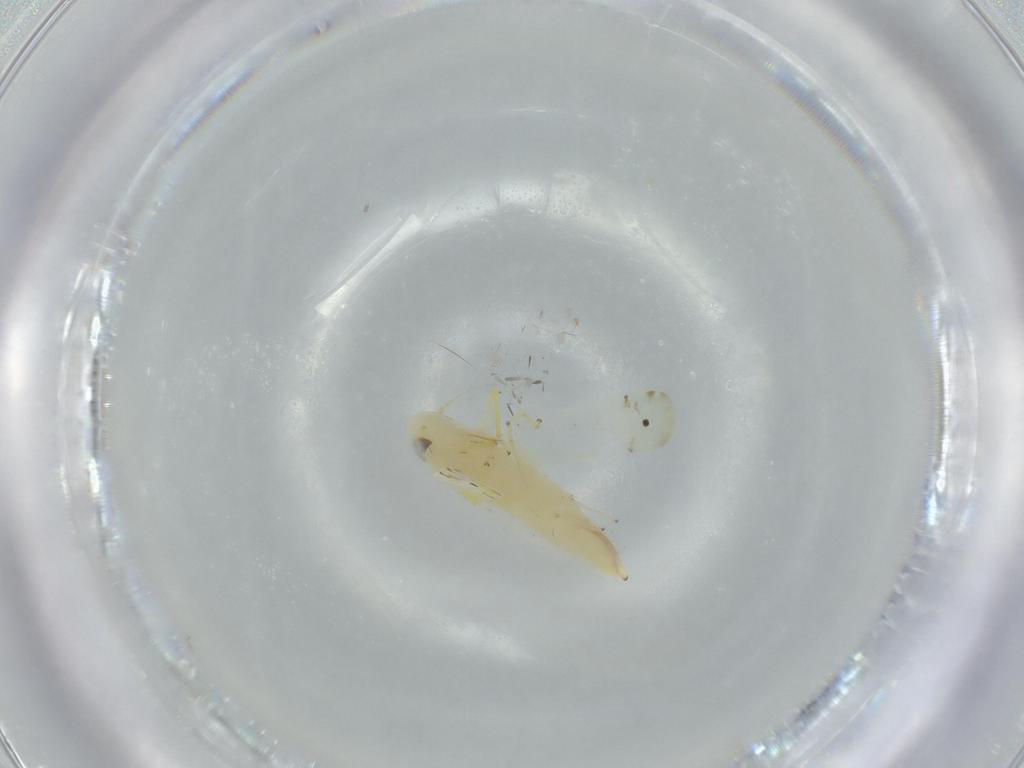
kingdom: Animalia
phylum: Arthropoda
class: Insecta
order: Hemiptera
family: Cicadellidae
